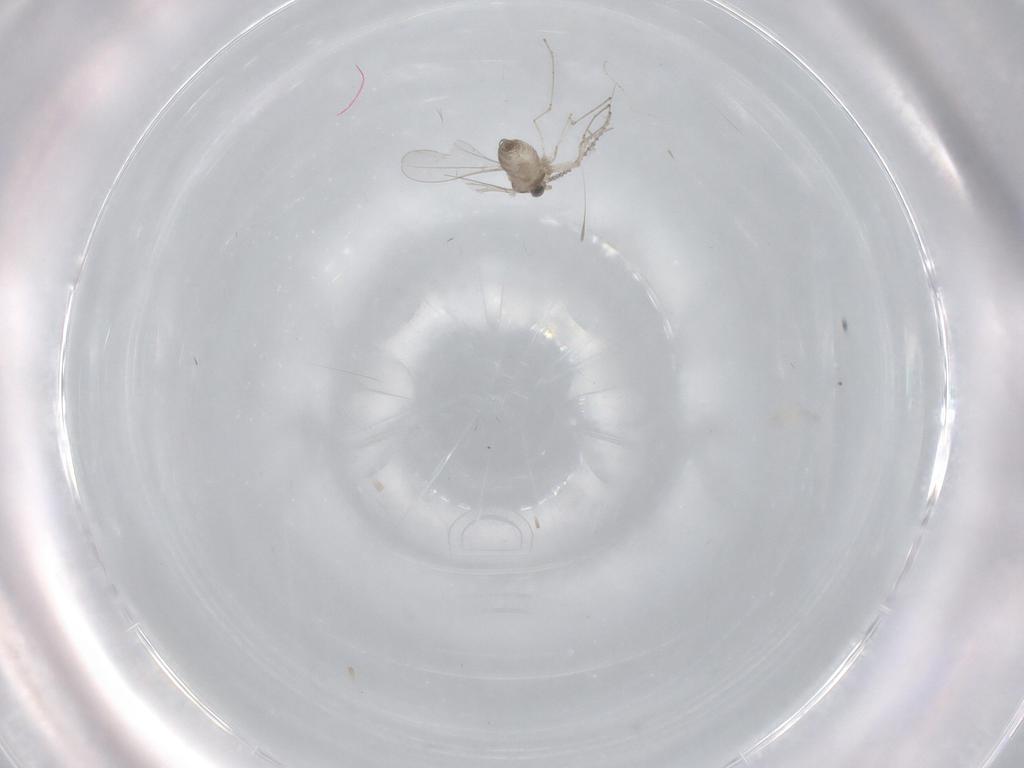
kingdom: Animalia
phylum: Arthropoda
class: Insecta
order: Diptera
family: Cecidomyiidae
